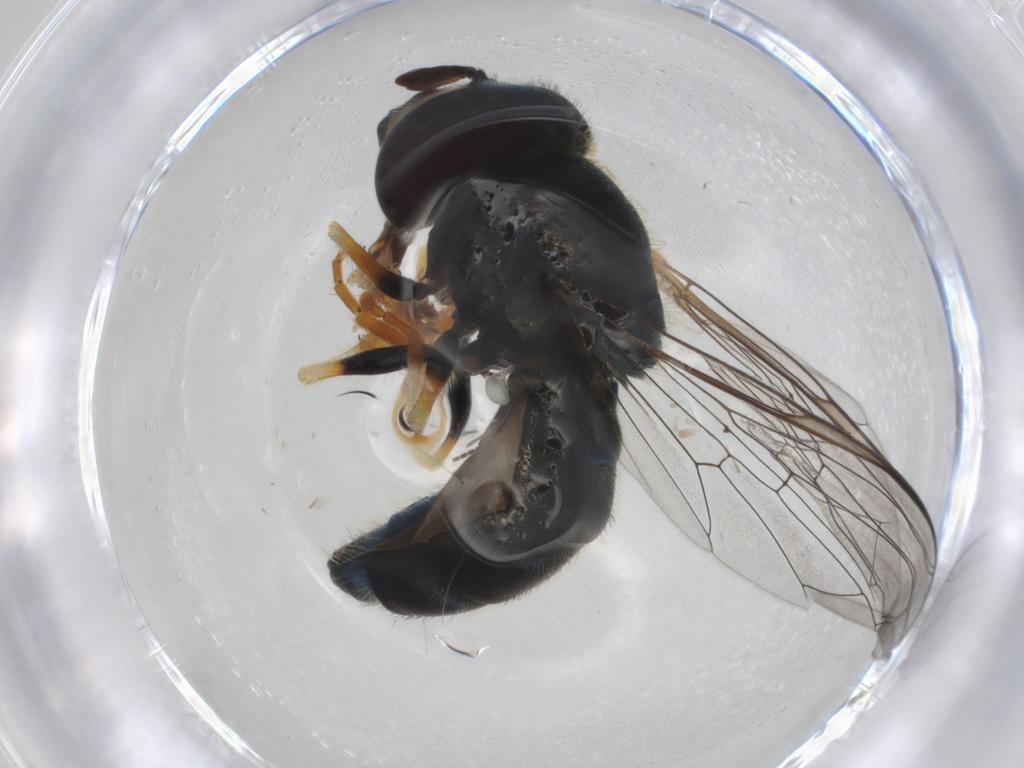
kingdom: Animalia
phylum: Arthropoda
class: Insecta
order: Diptera
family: Syrphidae
